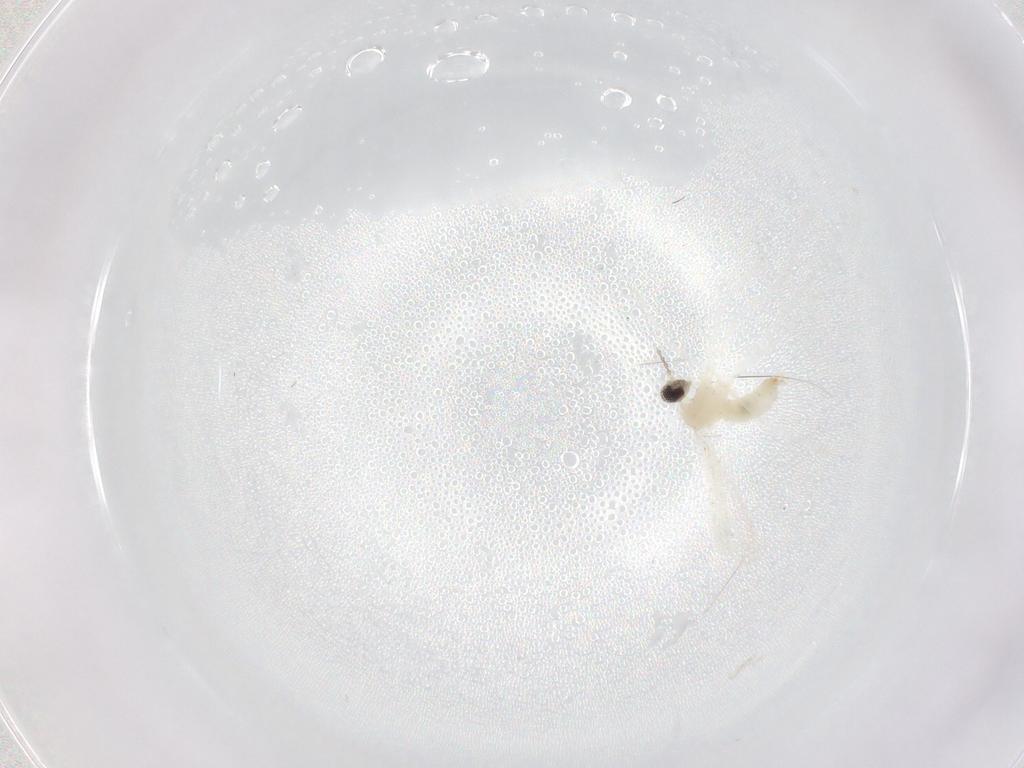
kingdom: Animalia
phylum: Arthropoda
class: Insecta
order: Diptera
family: Cecidomyiidae
